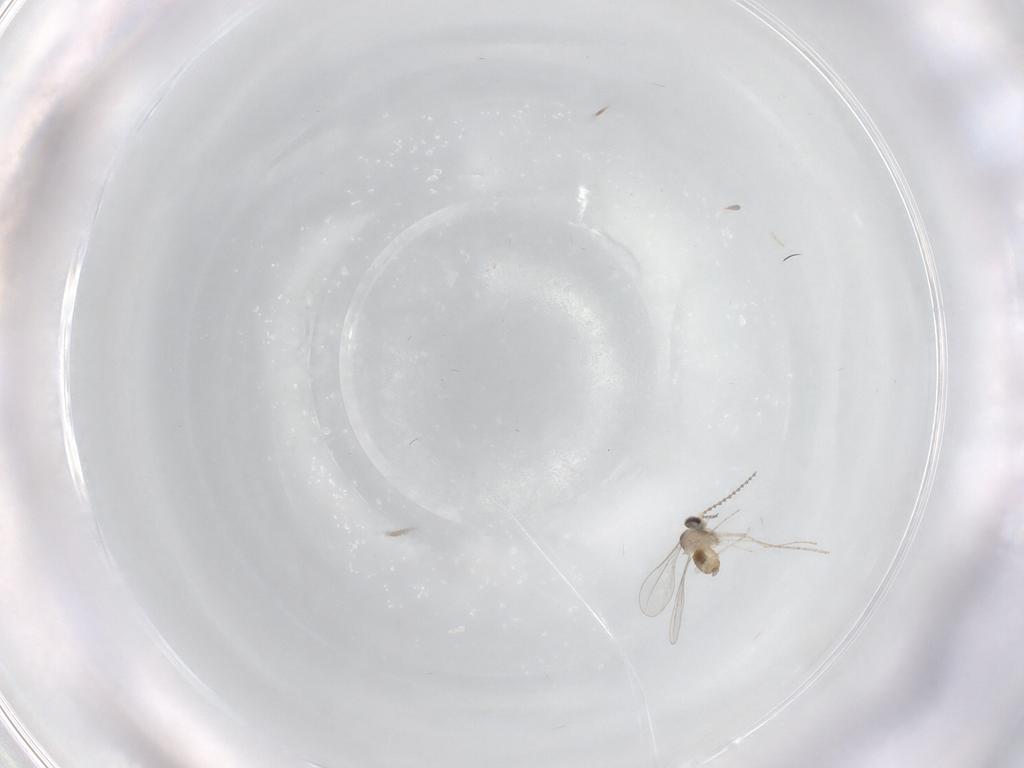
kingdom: Animalia
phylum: Arthropoda
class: Insecta
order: Diptera
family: Cecidomyiidae
